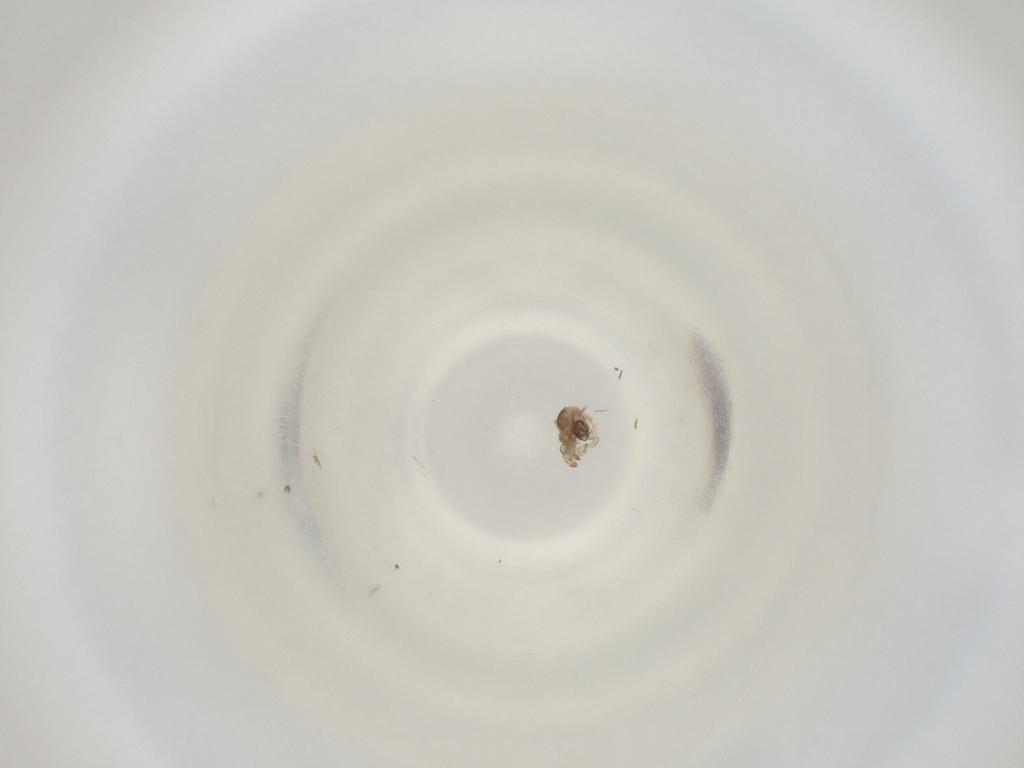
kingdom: Animalia
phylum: Arthropoda
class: Insecta
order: Diptera
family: Cecidomyiidae
